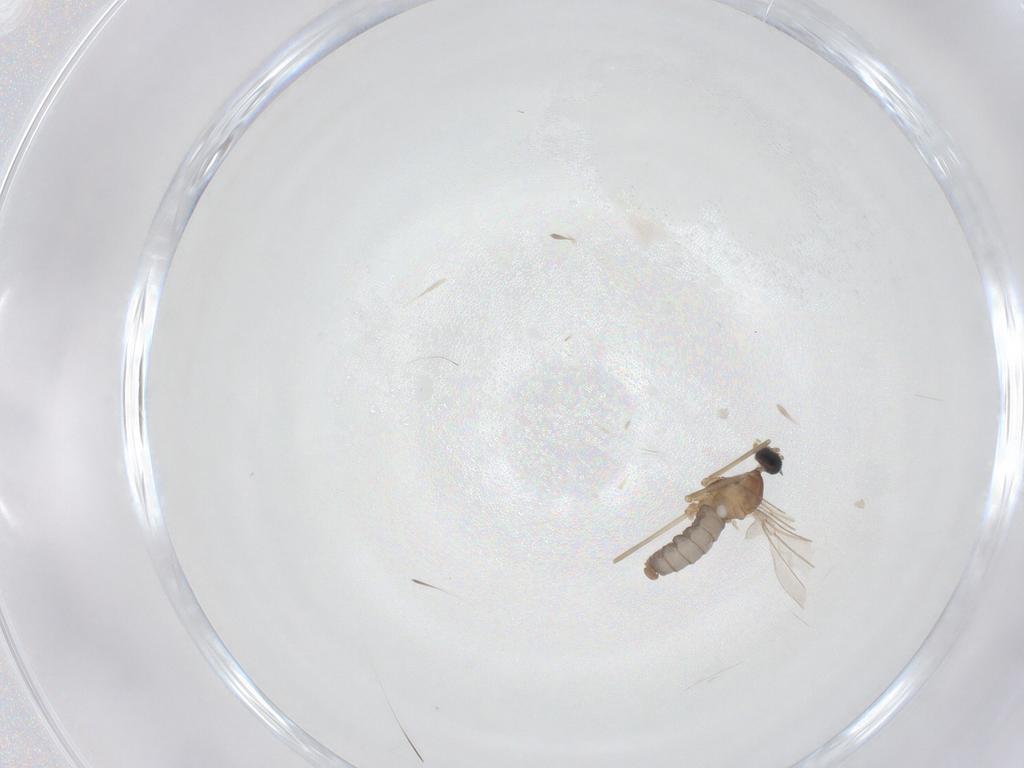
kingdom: Animalia
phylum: Arthropoda
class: Insecta
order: Diptera
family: Cecidomyiidae
